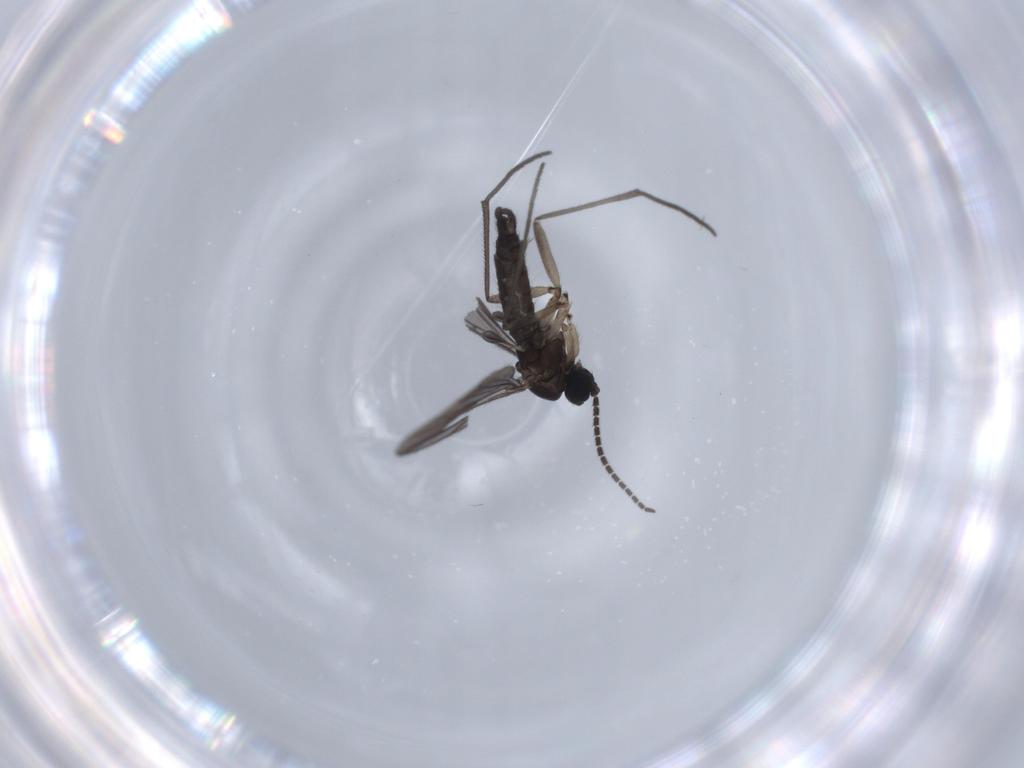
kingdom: Animalia
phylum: Arthropoda
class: Insecta
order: Diptera
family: Sciaridae
